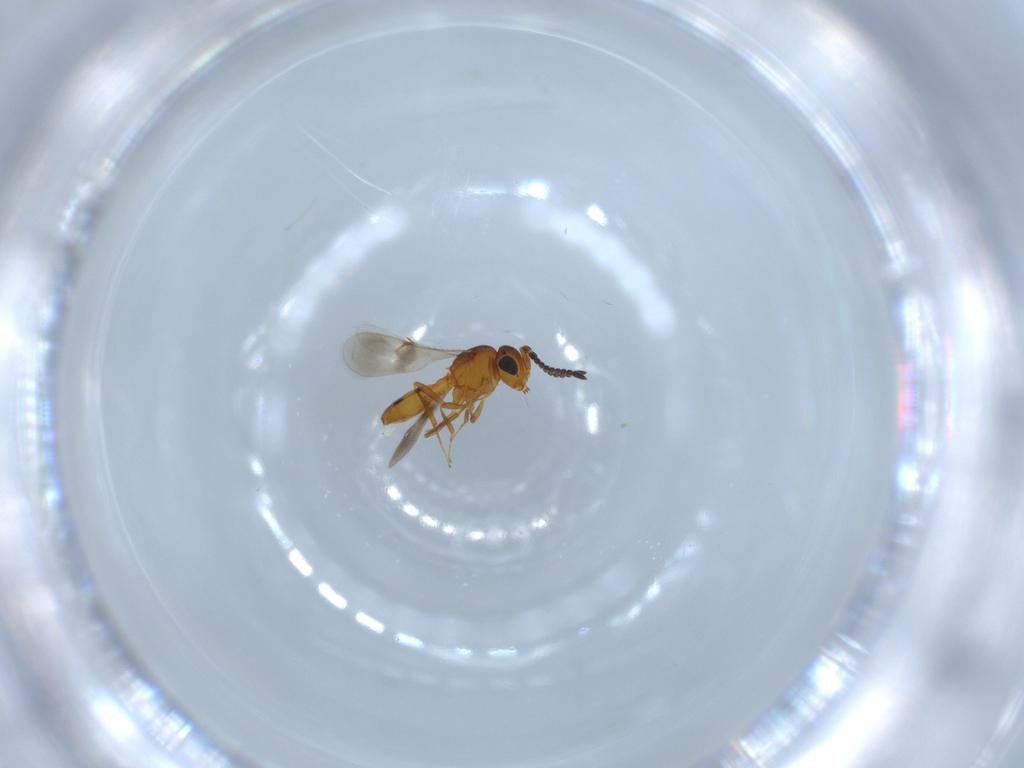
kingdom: Animalia
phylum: Arthropoda
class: Insecta
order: Hymenoptera
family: Scelionidae
